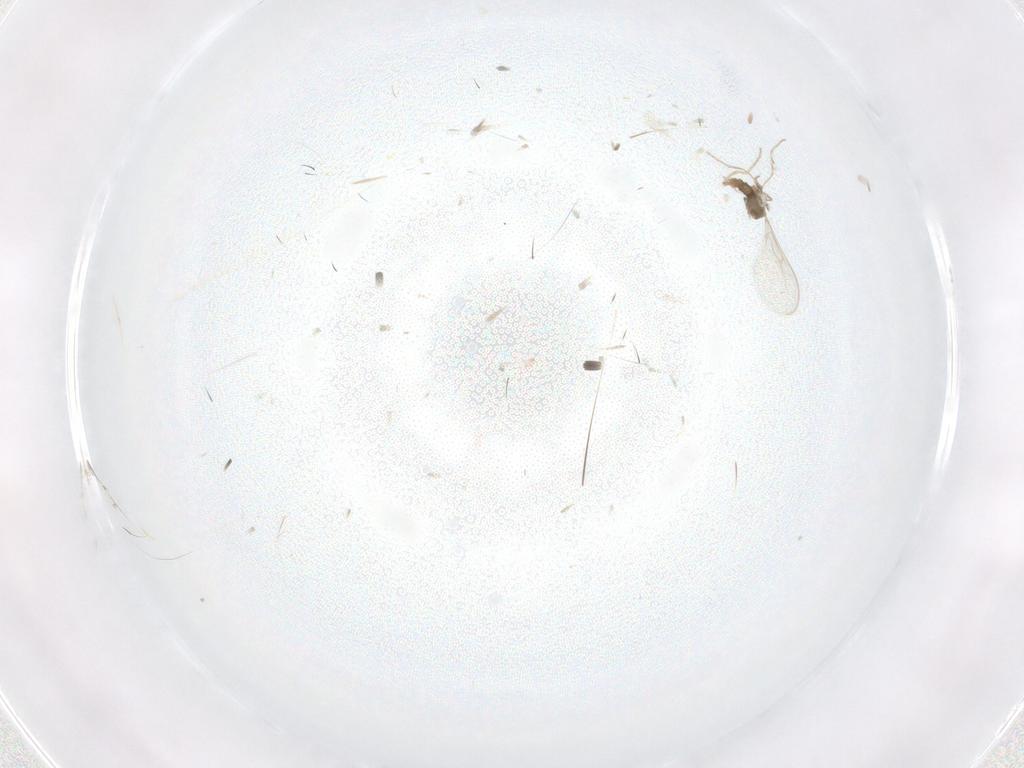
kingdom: Animalia
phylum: Arthropoda
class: Insecta
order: Diptera
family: Cecidomyiidae
